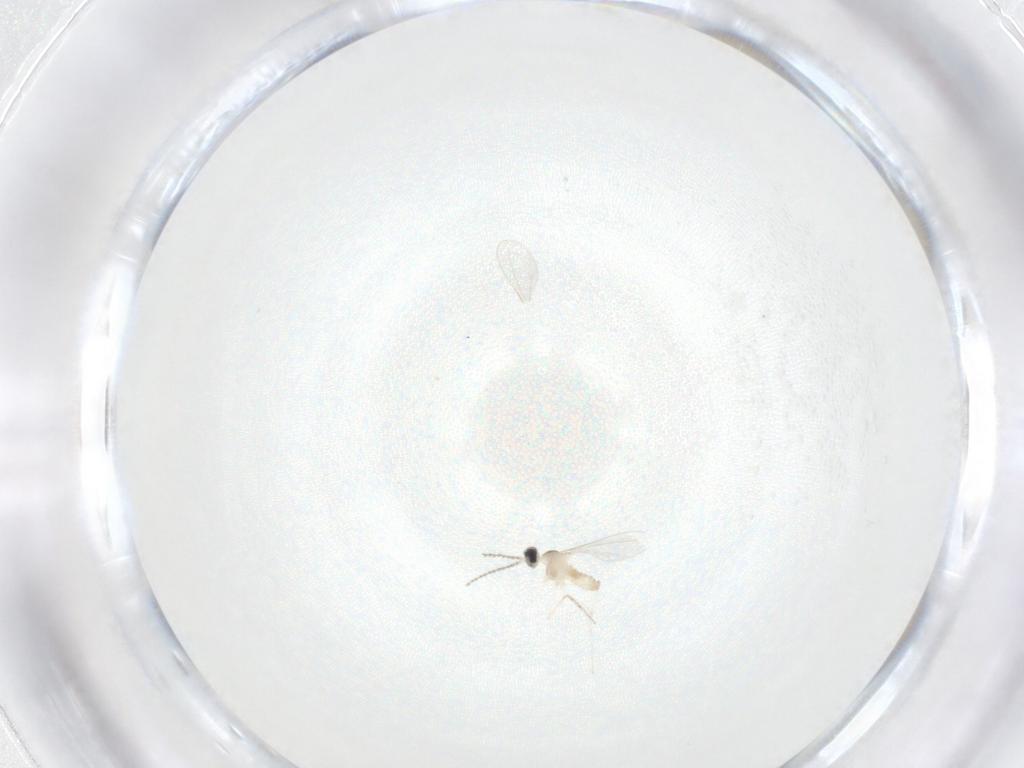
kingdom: Animalia
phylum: Arthropoda
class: Insecta
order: Diptera
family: Cecidomyiidae
